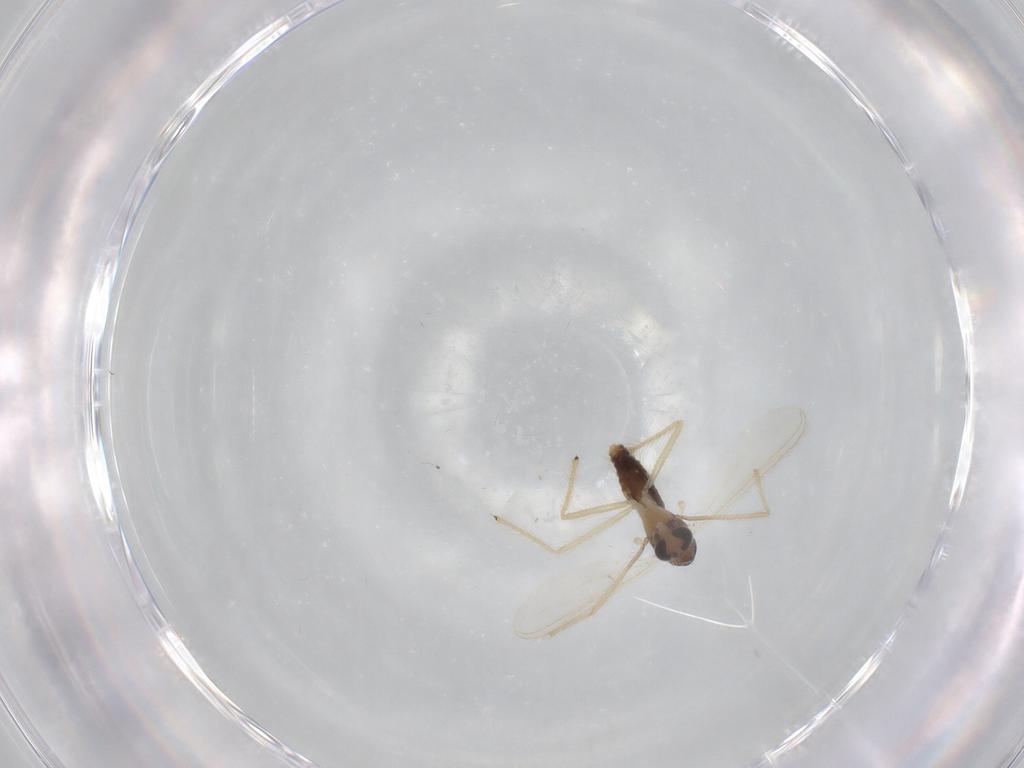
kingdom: Animalia
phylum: Arthropoda
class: Insecta
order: Diptera
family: Chironomidae
